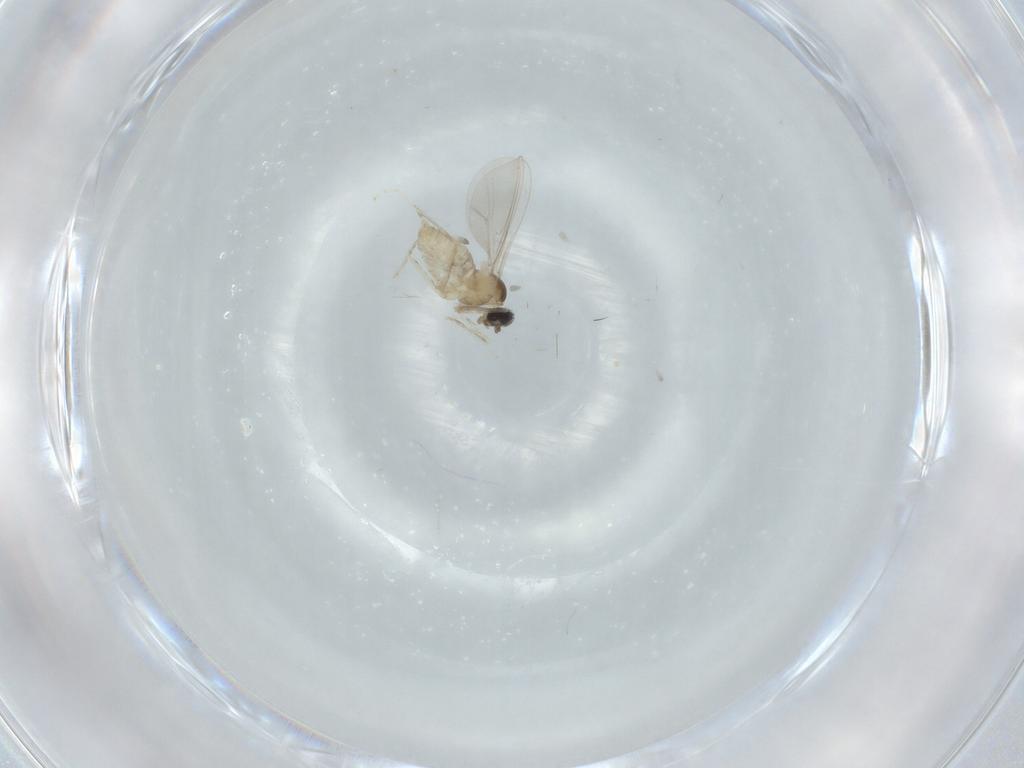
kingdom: Animalia
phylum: Arthropoda
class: Insecta
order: Diptera
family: Cecidomyiidae
